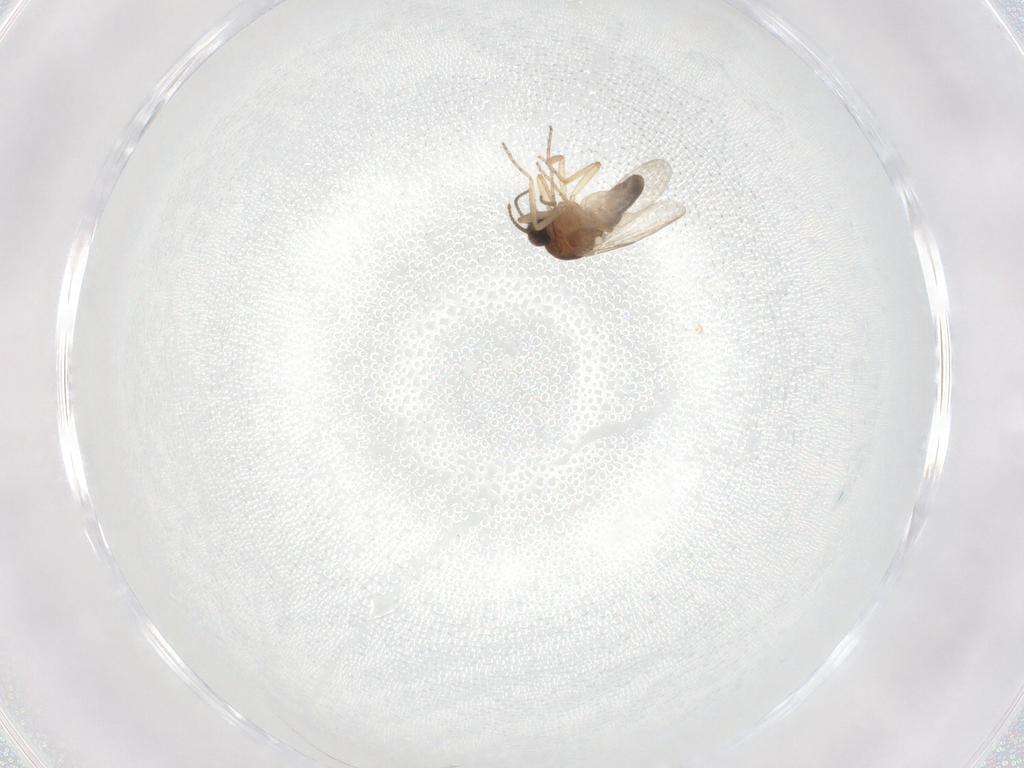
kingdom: Animalia
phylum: Arthropoda
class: Insecta
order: Diptera
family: Ceratopogonidae
